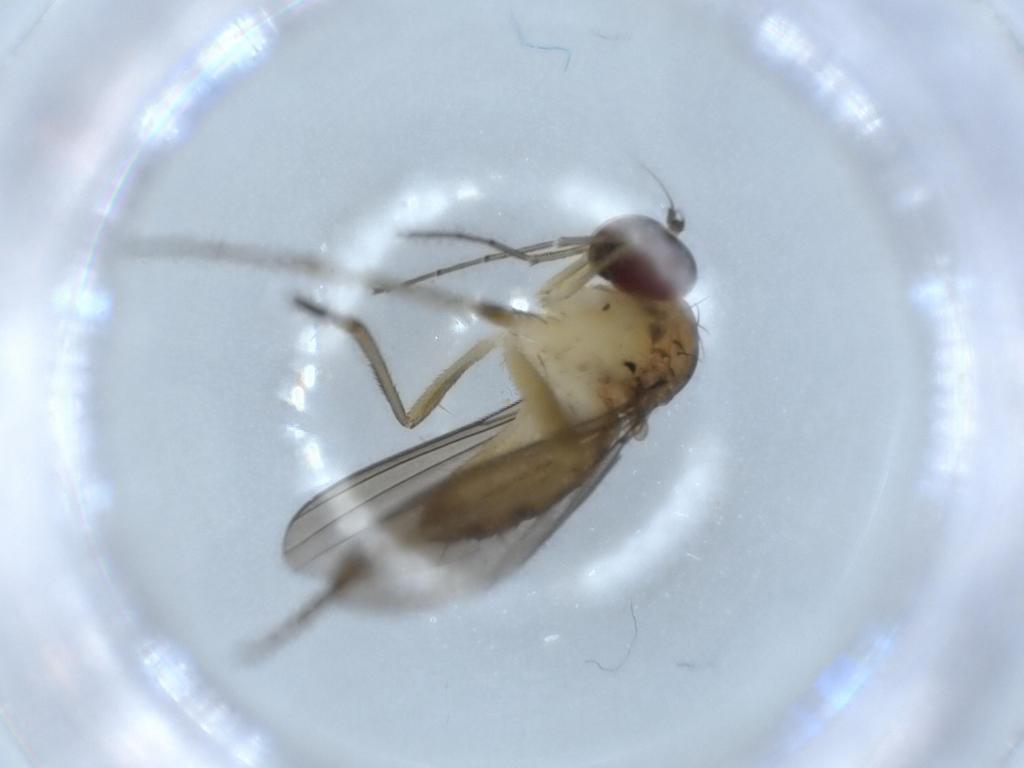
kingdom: Animalia
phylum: Arthropoda
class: Insecta
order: Diptera
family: Dolichopodidae
